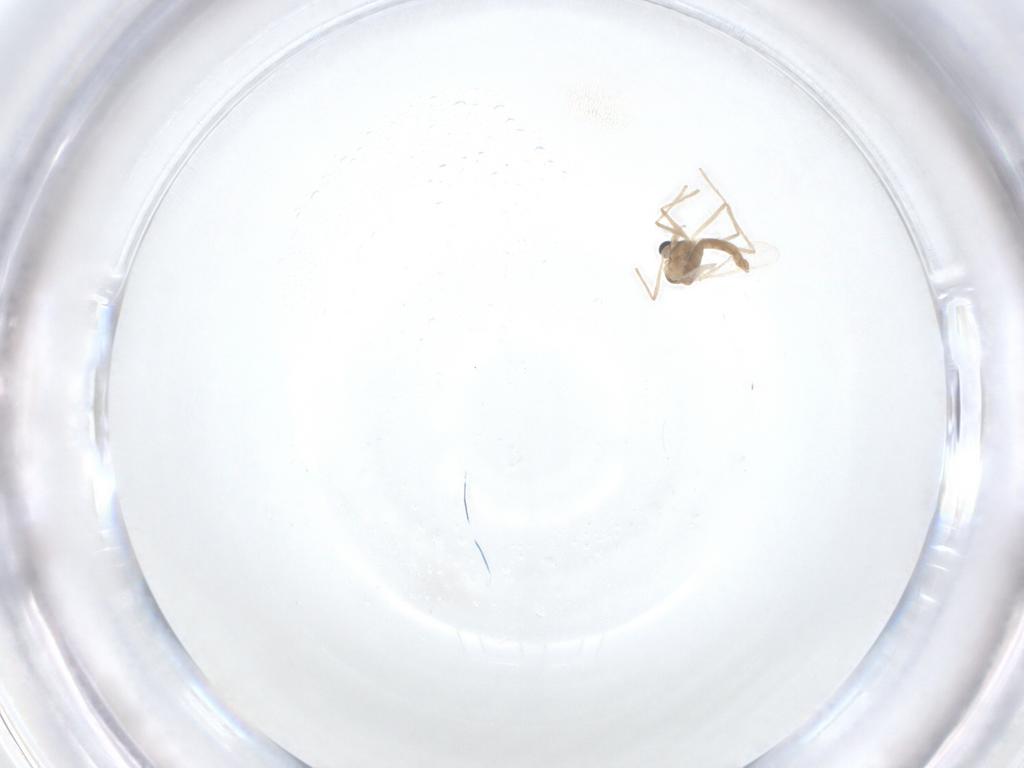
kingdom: Animalia
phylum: Arthropoda
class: Insecta
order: Diptera
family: Chironomidae
